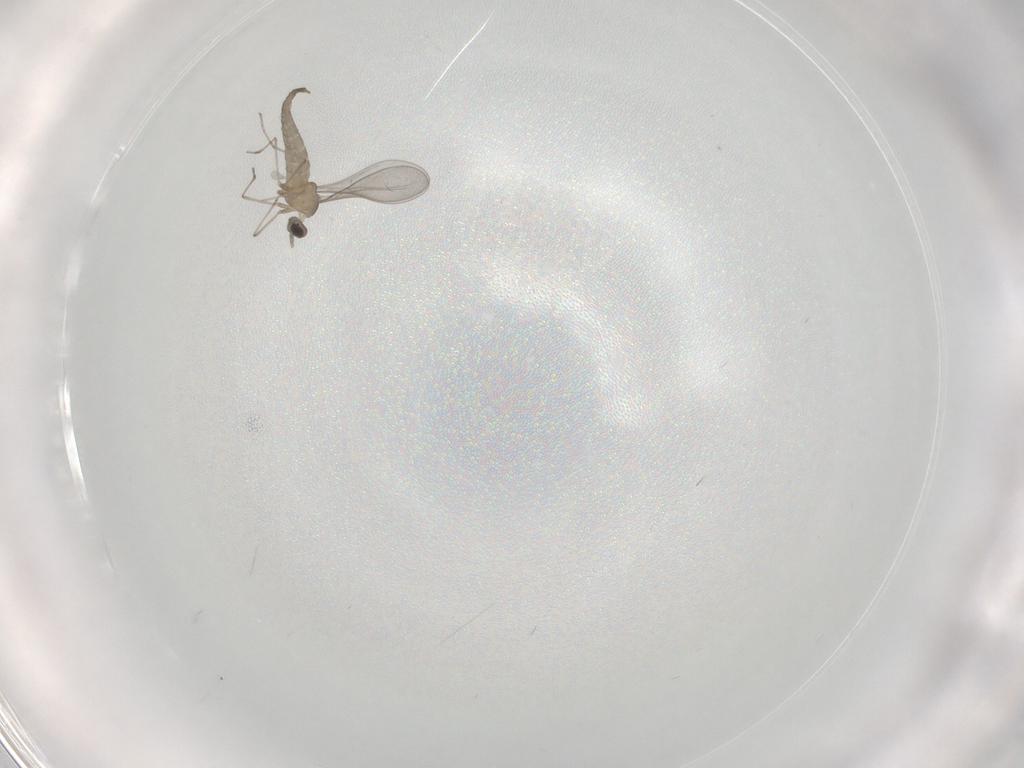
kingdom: Animalia
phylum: Arthropoda
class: Insecta
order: Diptera
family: Cecidomyiidae
